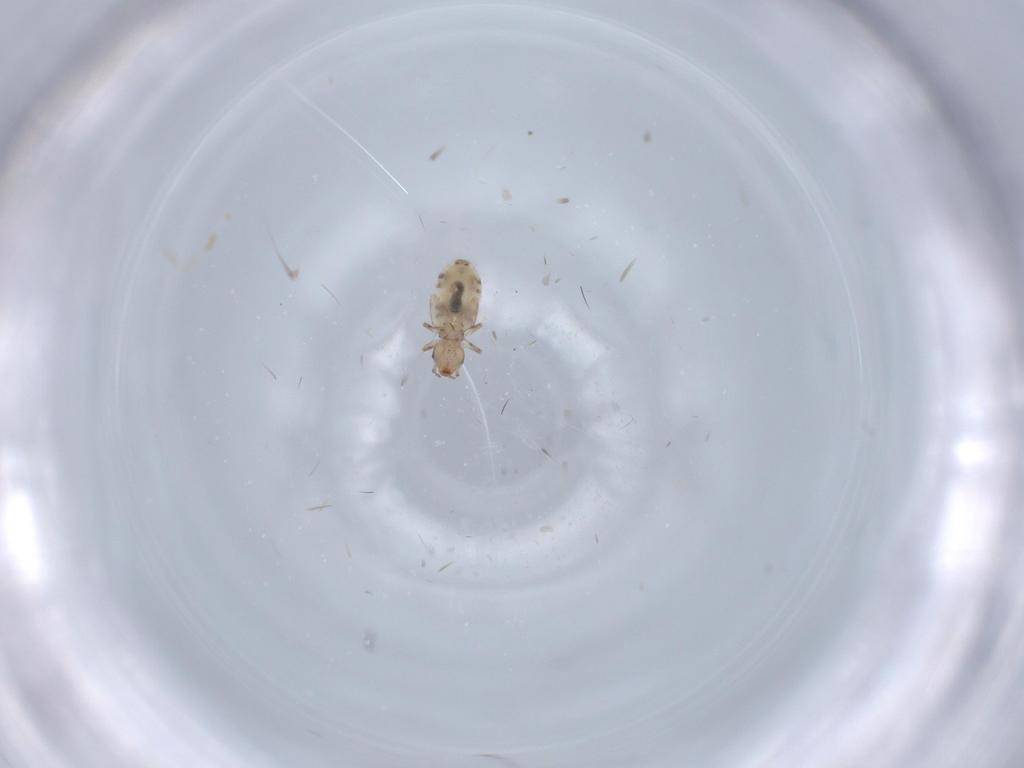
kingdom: Animalia
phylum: Arthropoda
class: Insecta
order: Psocodea
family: Liposcelididae
